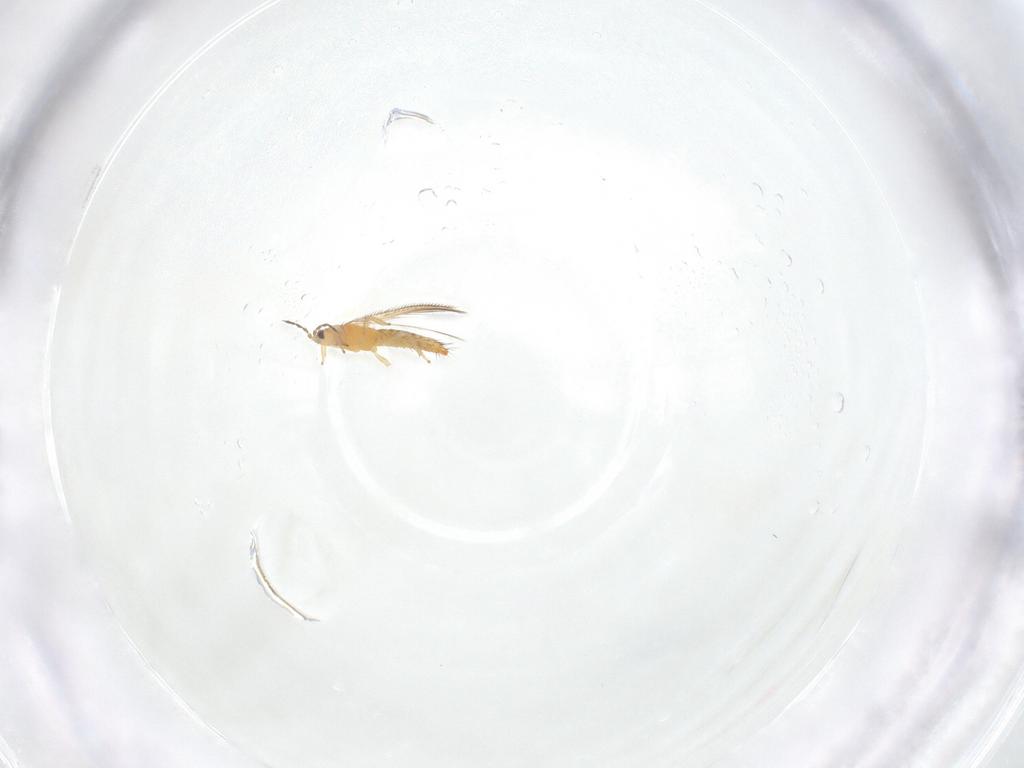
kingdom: Animalia
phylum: Arthropoda
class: Insecta
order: Thysanoptera
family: Thripidae
